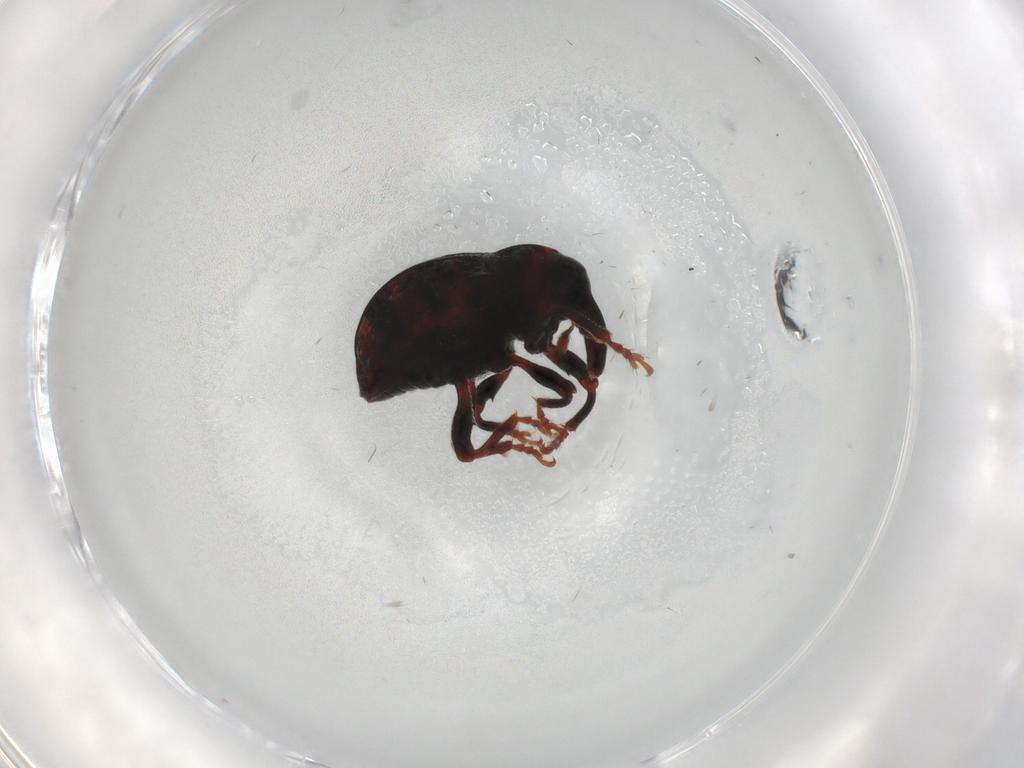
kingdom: Animalia
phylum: Arthropoda
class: Insecta
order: Coleoptera
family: Curculionidae
